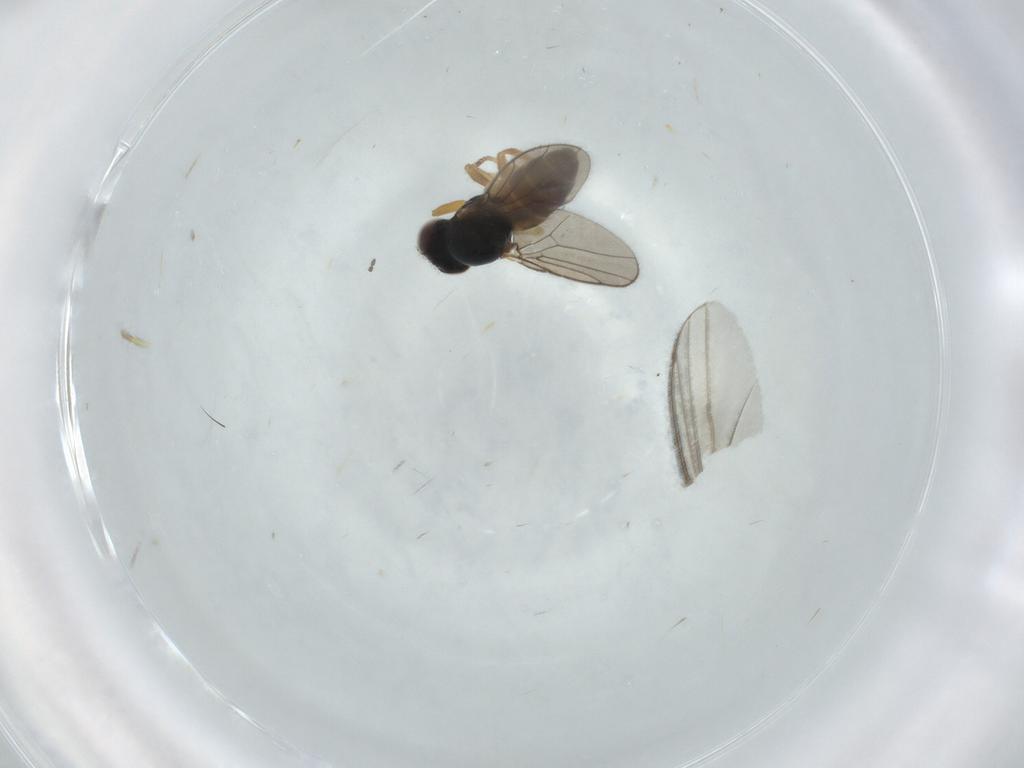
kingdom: Animalia
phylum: Arthropoda
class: Insecta
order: Diptera
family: Chloropidae
